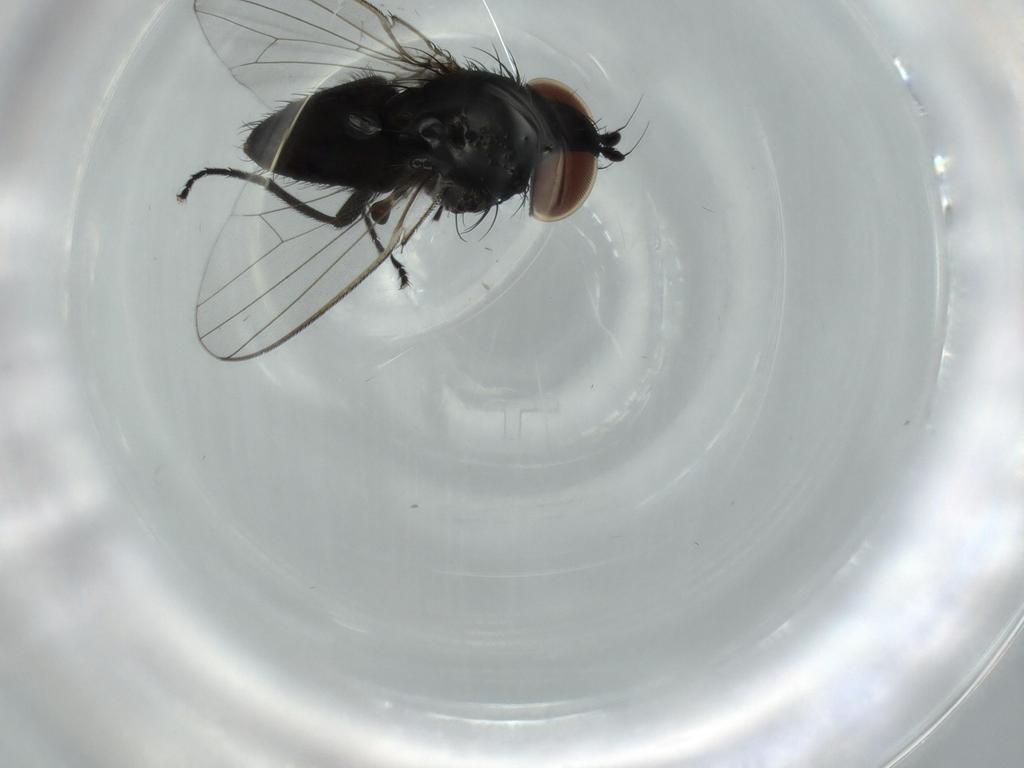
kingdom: Animalia
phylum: Arthropoda
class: Insecta
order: Diptera
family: Milichiidae
